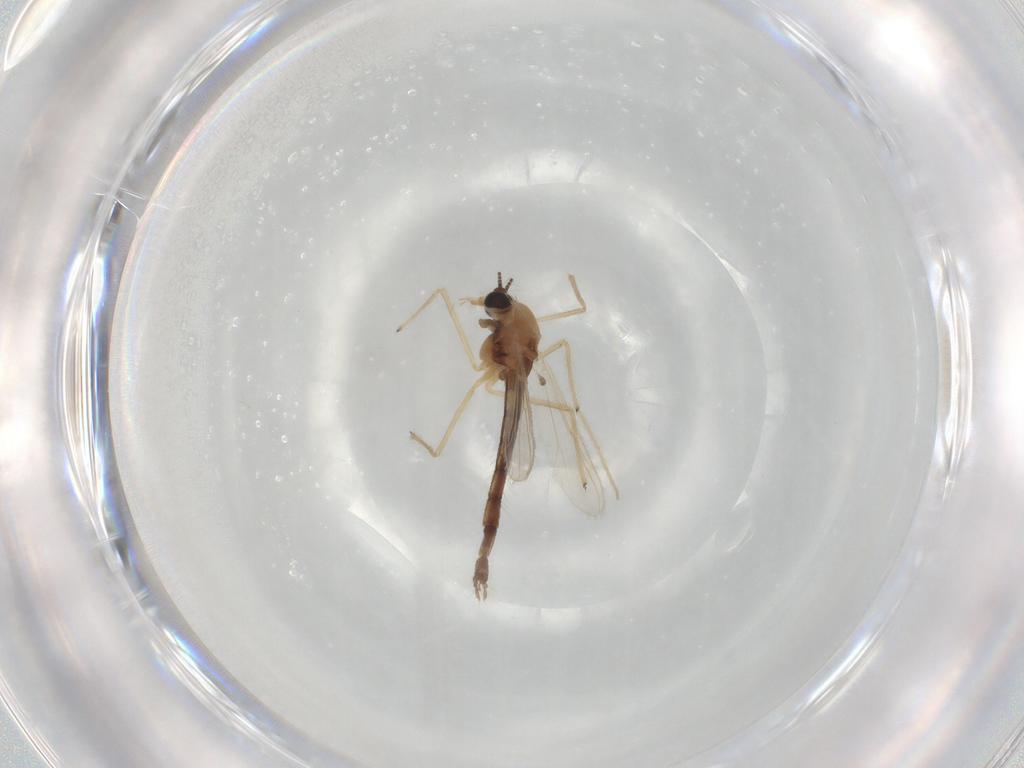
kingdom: Animalia
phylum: Arthropoda
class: Insecta
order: Diptera
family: Chironomidae
